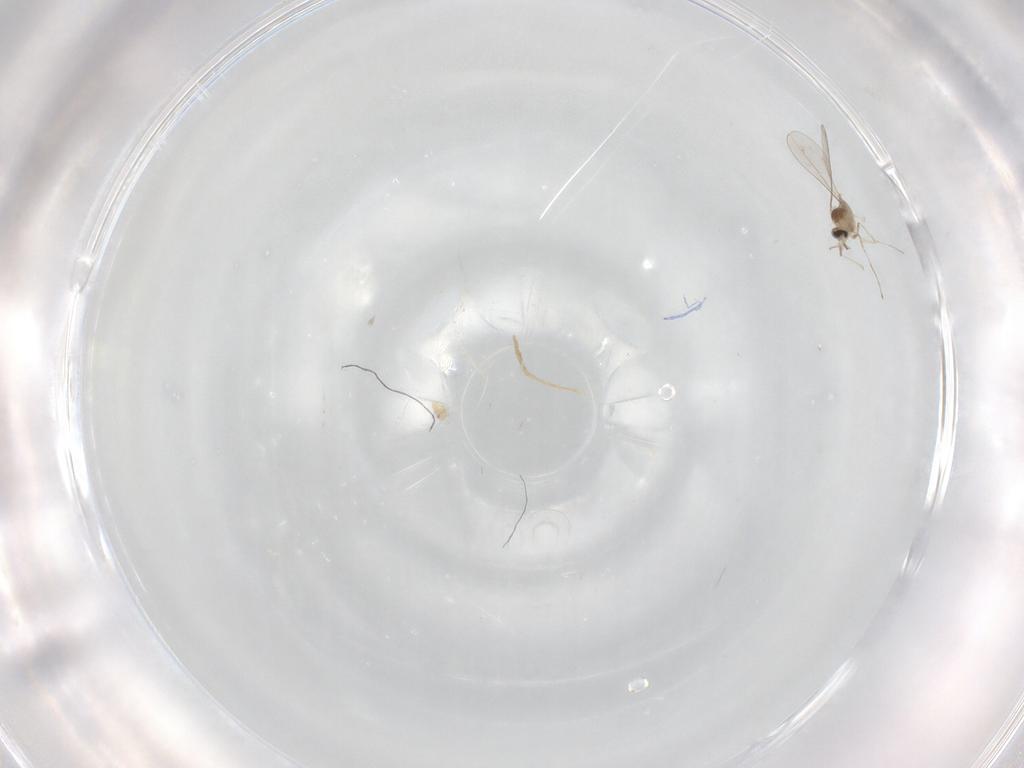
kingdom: Animalia
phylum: Arthropoda
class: Insecta
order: Diptera
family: Cecidomyiidae
